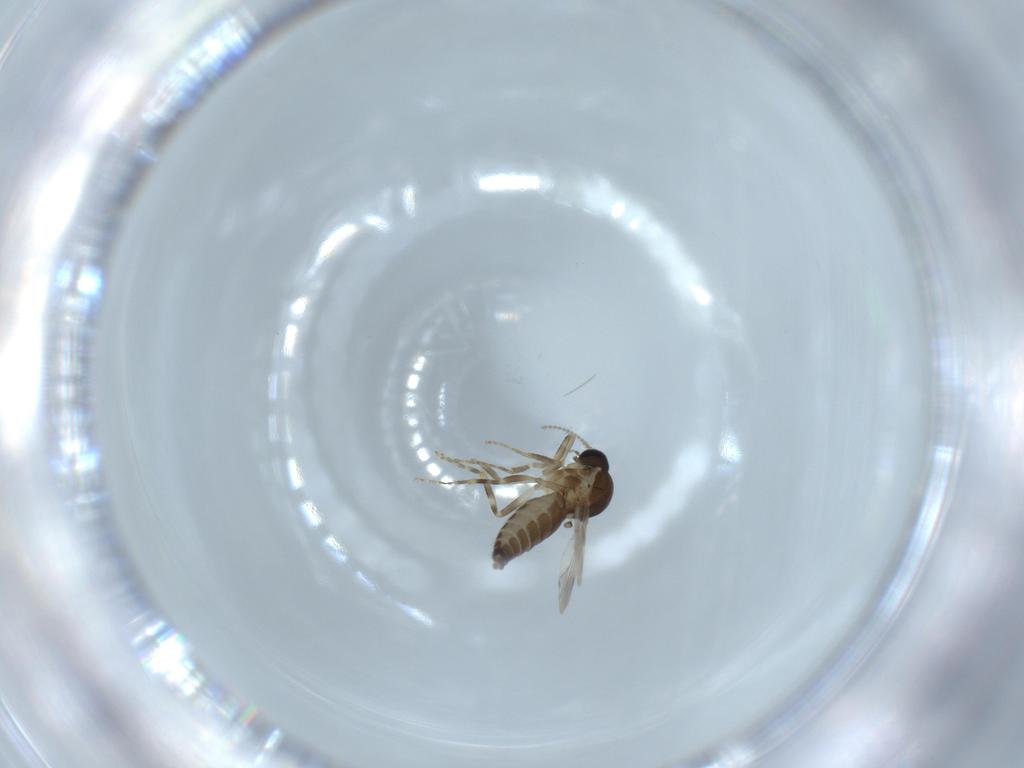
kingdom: Animalia
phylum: Arthropoda
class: Insecta
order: Diptera
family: Ceratopogonidae
